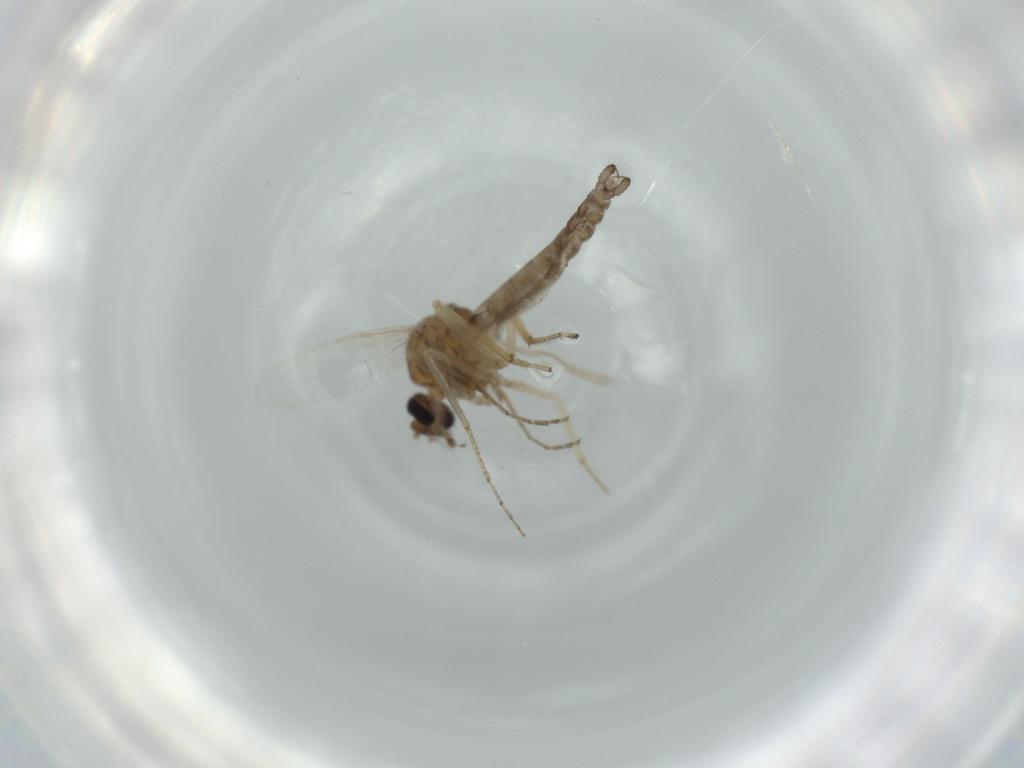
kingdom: Animalia
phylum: Arthropoda
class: Insecta
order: Diptera
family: Ceratopogonidae
